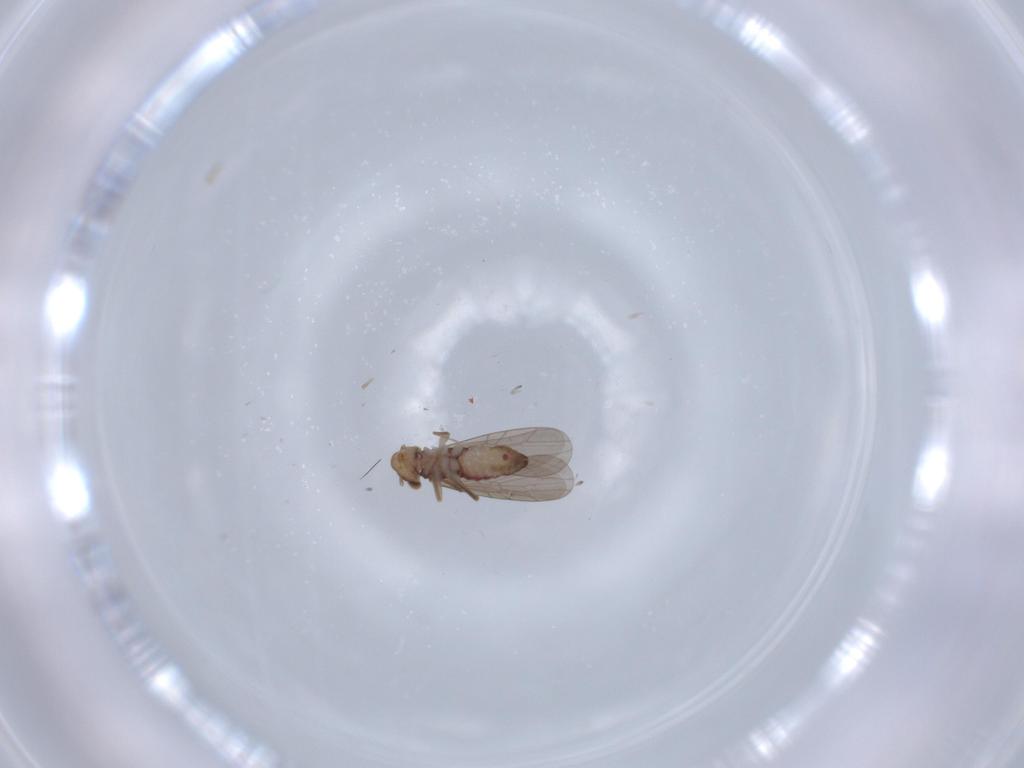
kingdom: Animalia
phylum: Arthropoda
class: Insecta
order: Psocodea
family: Lepidopsocidae
